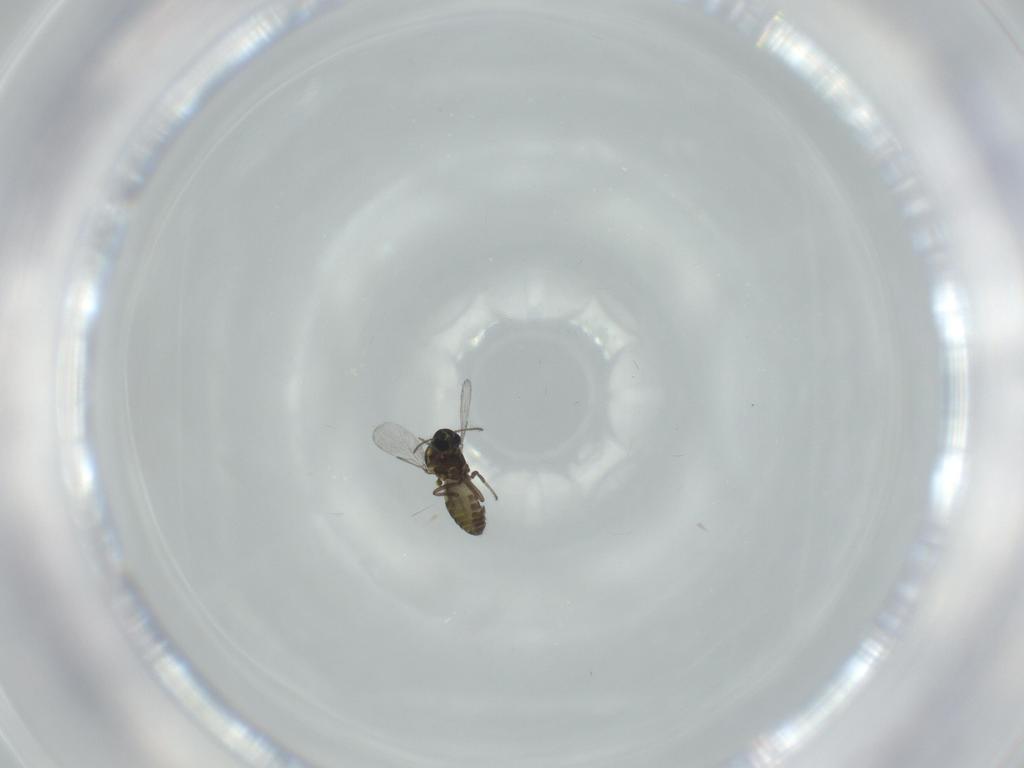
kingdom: Animalia
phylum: Arthropoda
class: Insecta
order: Diptera
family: Ceratopogonidae
